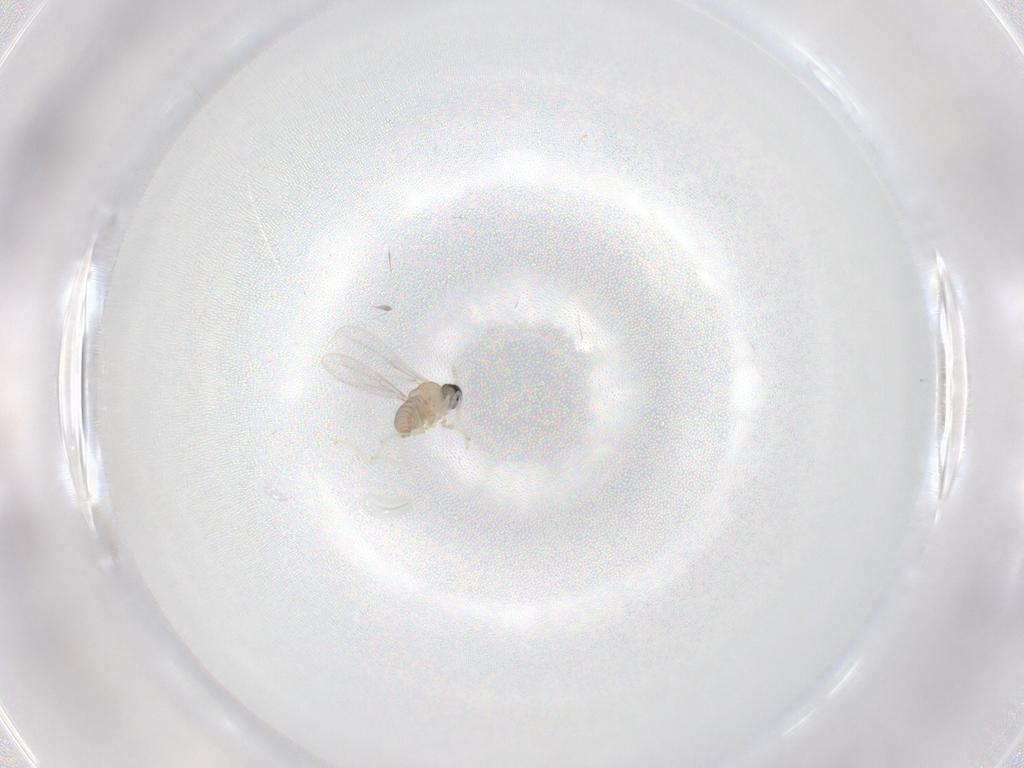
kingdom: Animalia
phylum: Arthropoda
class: Insecta
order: Diptera
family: Cecidomyiidae
